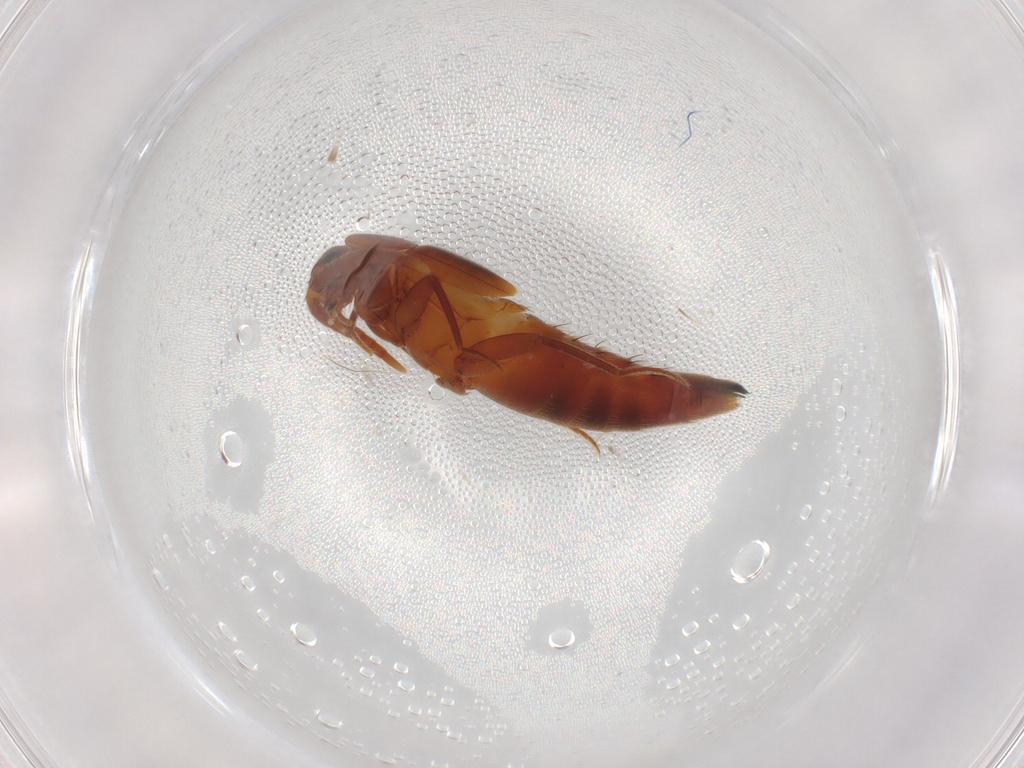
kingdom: Animalia
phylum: Arthropoda
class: Insecta
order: Coleoptera
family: Staphylinidae
